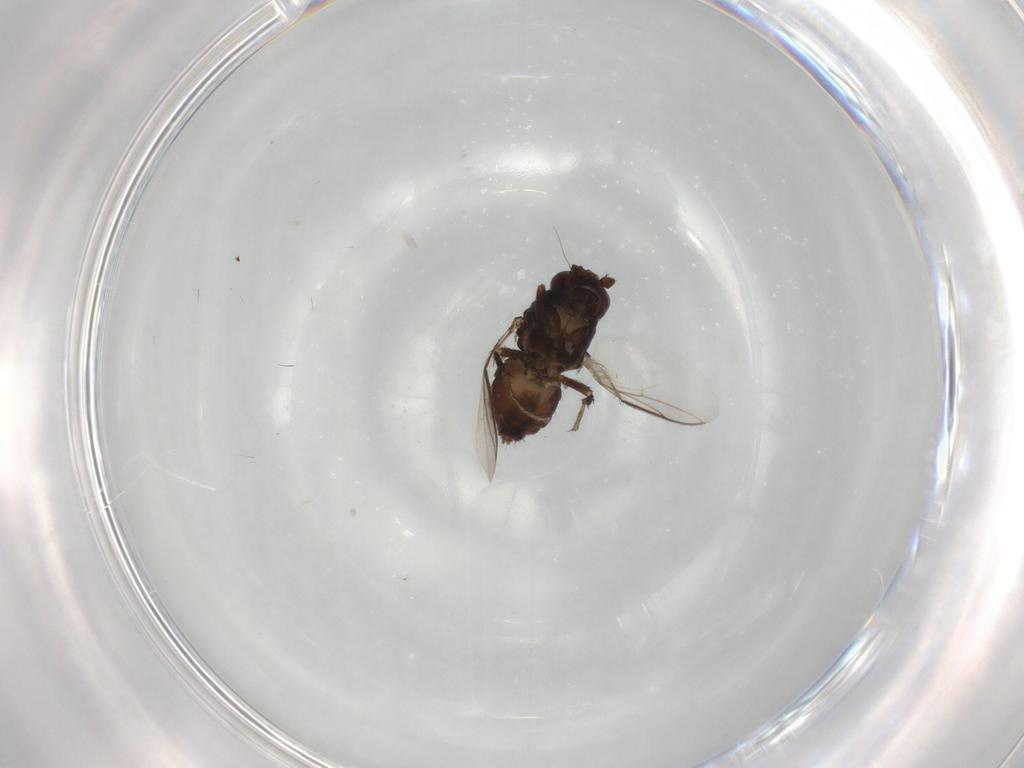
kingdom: Animalia
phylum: Arthropoda
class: Insecta
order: Diptera
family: Sphaeroceridae
